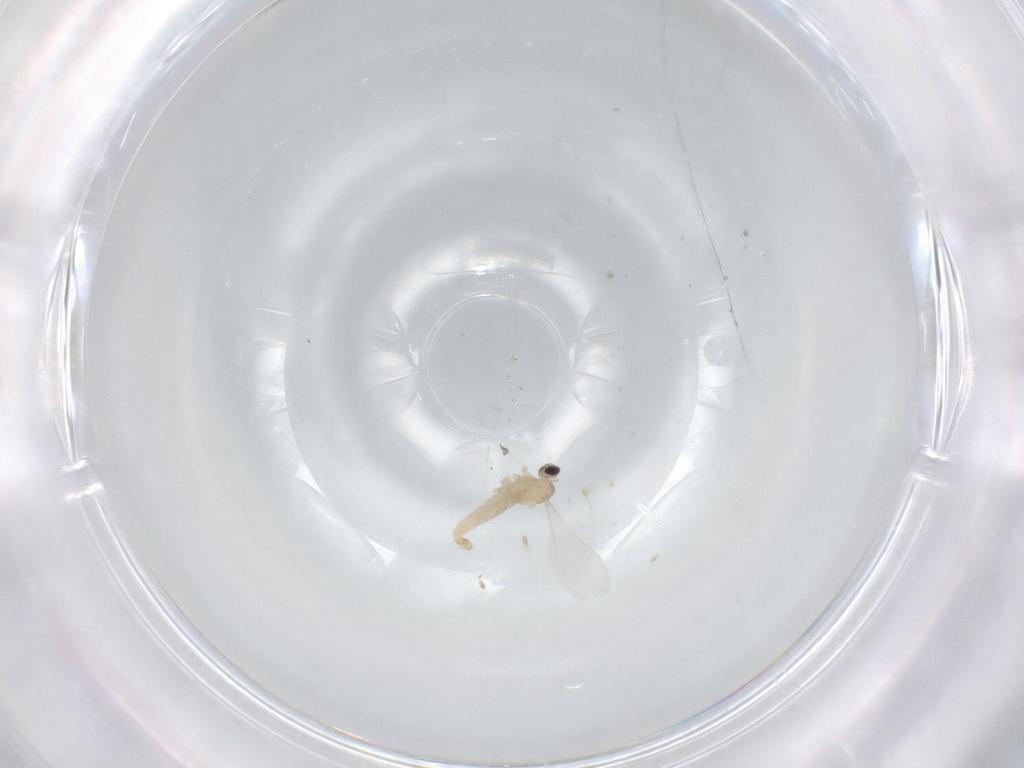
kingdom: Animalia
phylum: Arthropoda
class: Insecta
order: Diptera
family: Cecidomyiidae
